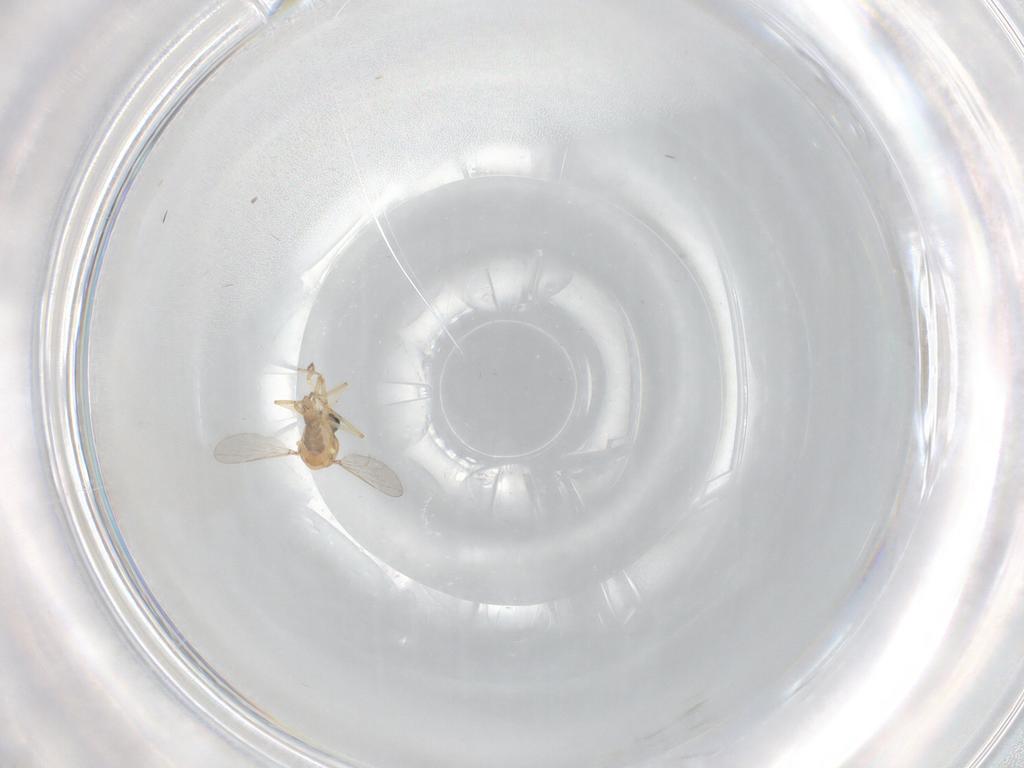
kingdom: Animalia
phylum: Arthropoda
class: Insecta
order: Diptera
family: Ceratopogonidae
